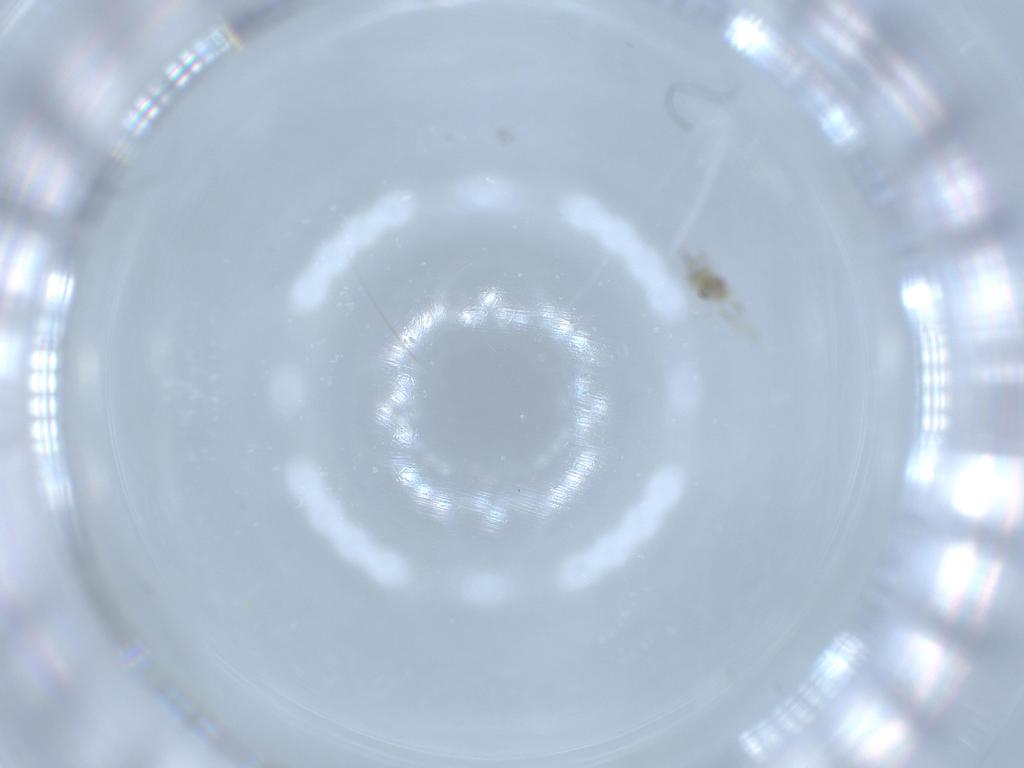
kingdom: Animalia
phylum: Arthropoda
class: Insecta
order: Diptera
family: Cecidomyiidae
